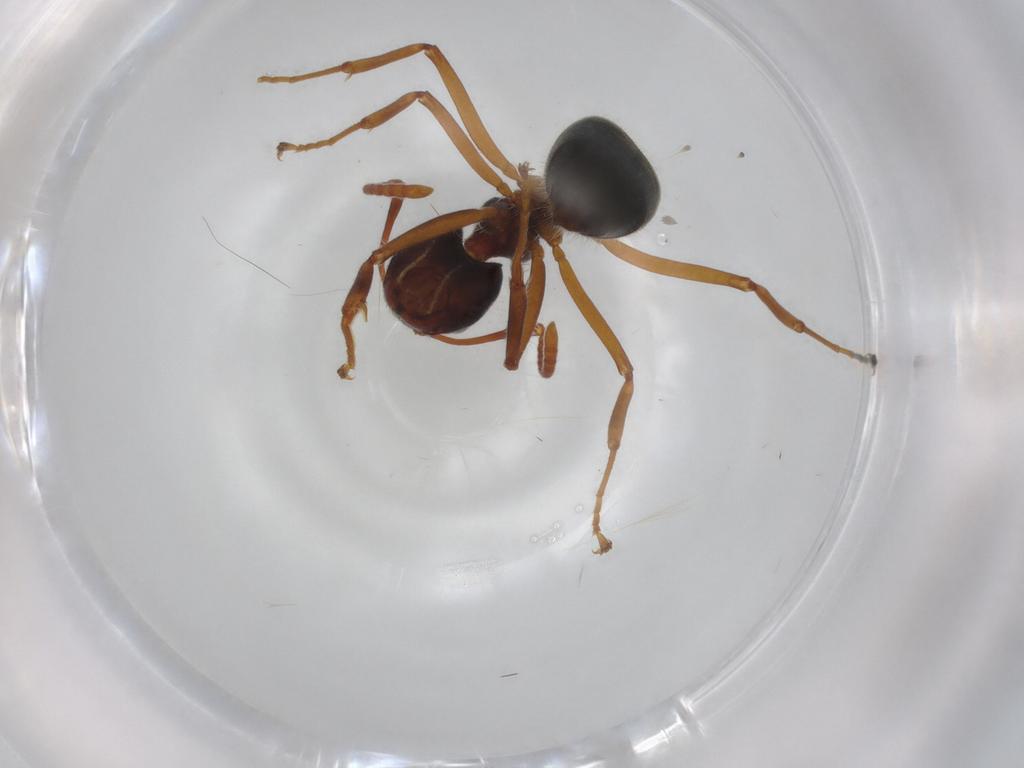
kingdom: Animalia
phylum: Arthropoda
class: Insecta
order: Hymenoptera
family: Formicidae
